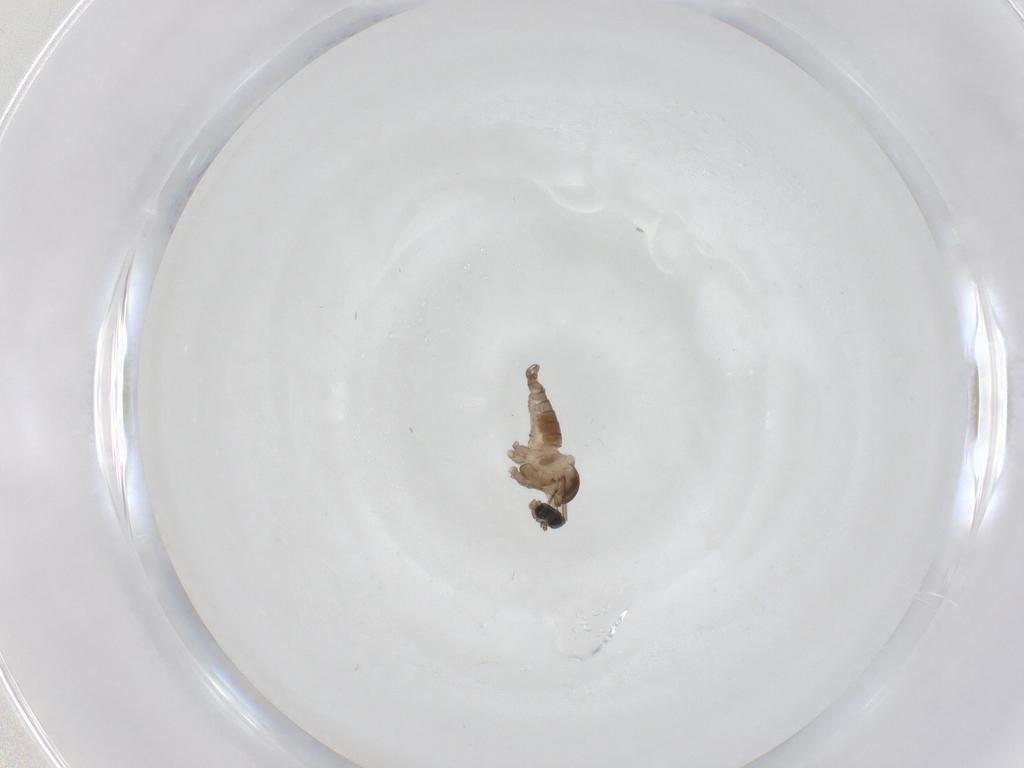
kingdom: Animalia
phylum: Arthropoda
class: Insecta
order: Diptera
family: Cecidomyiidae
